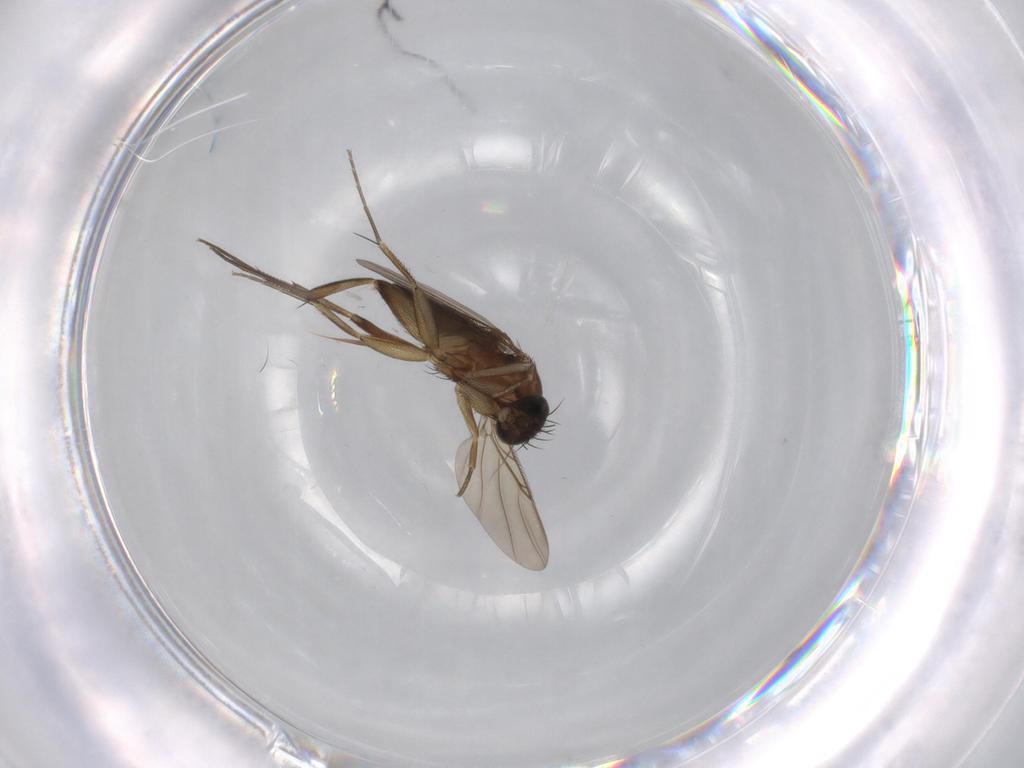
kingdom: Animalia
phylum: Arthropoda
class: Insecta
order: Diptera
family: Phoridae
